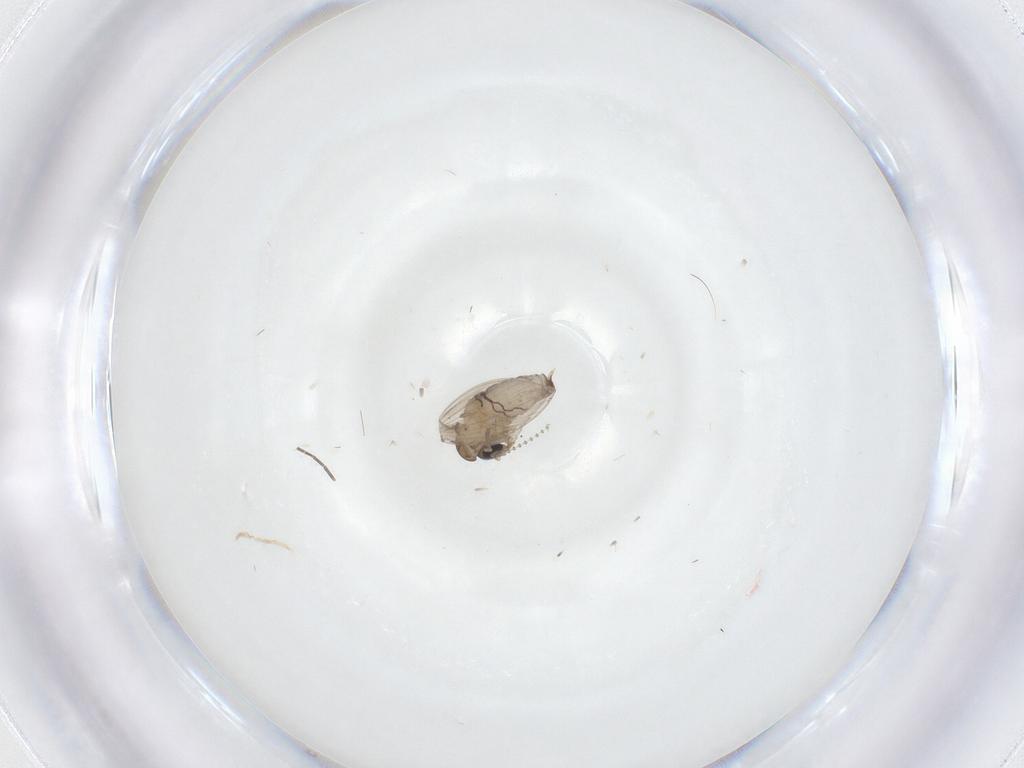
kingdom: Animalia
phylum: Arthropoda
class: Insecta
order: Diptera
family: Psychodidae
